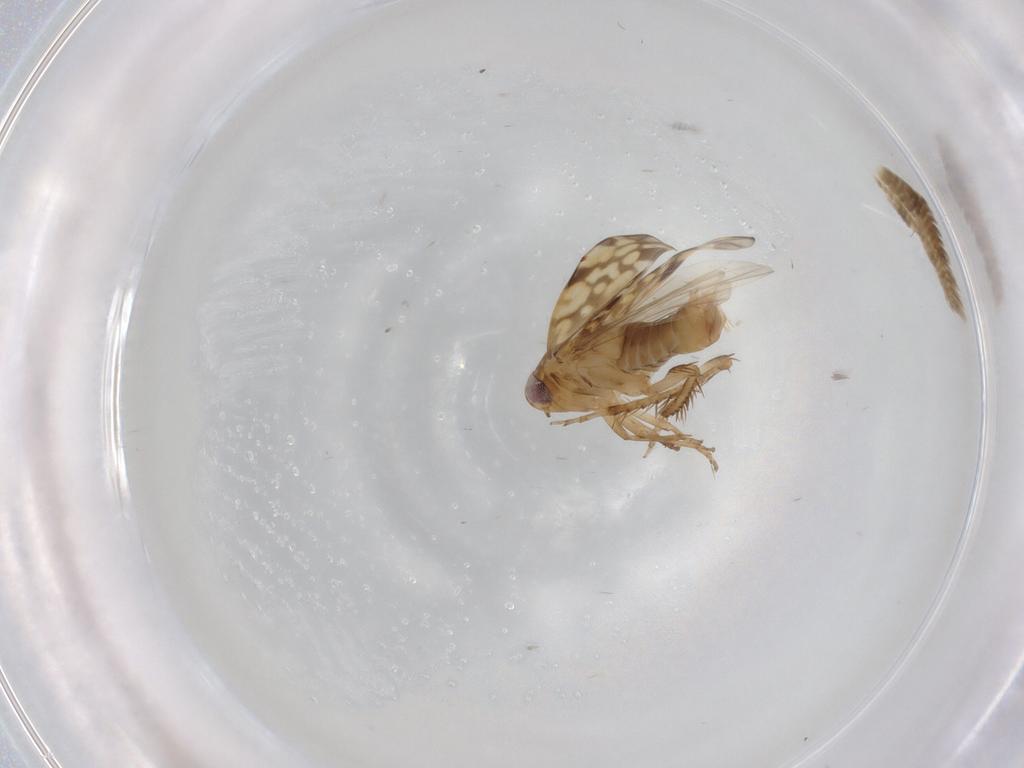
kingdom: Animalia
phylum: Arthropoda
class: Insecta
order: Hemiptera
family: Cicadellidae
